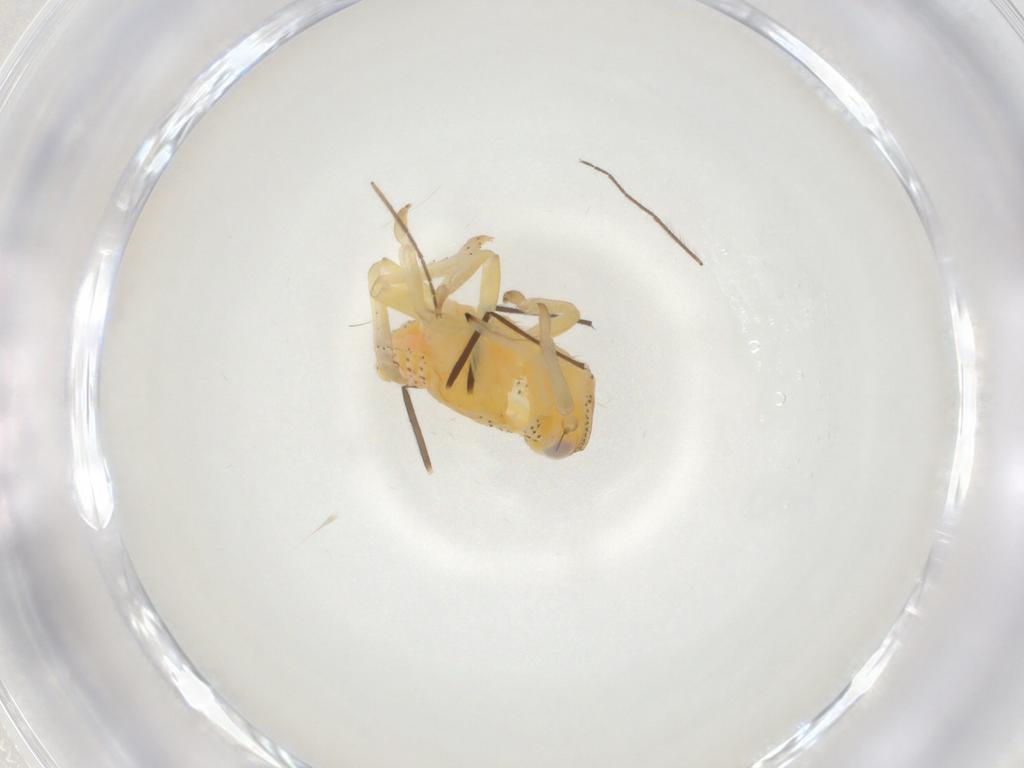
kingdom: Animalia
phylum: Arthropoda
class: Insecta
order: Hemiptera
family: Tropiduchidae
